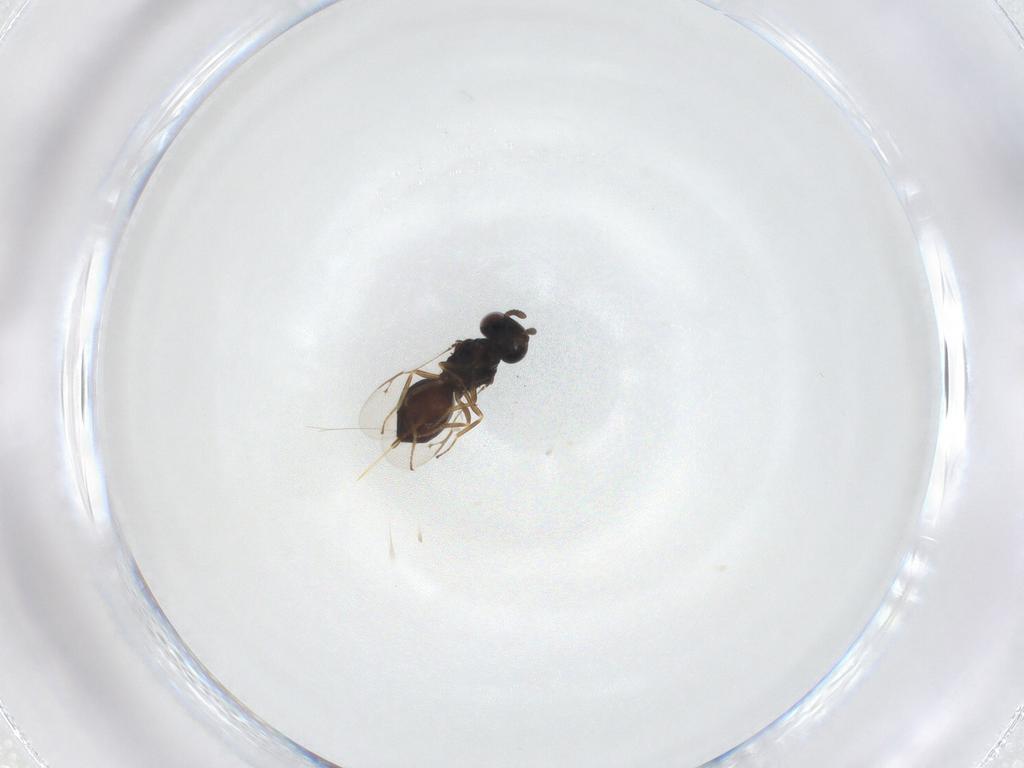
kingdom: Animalia
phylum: Arthropoda
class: Insecta
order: Hymenoptera
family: Pteromalidae
